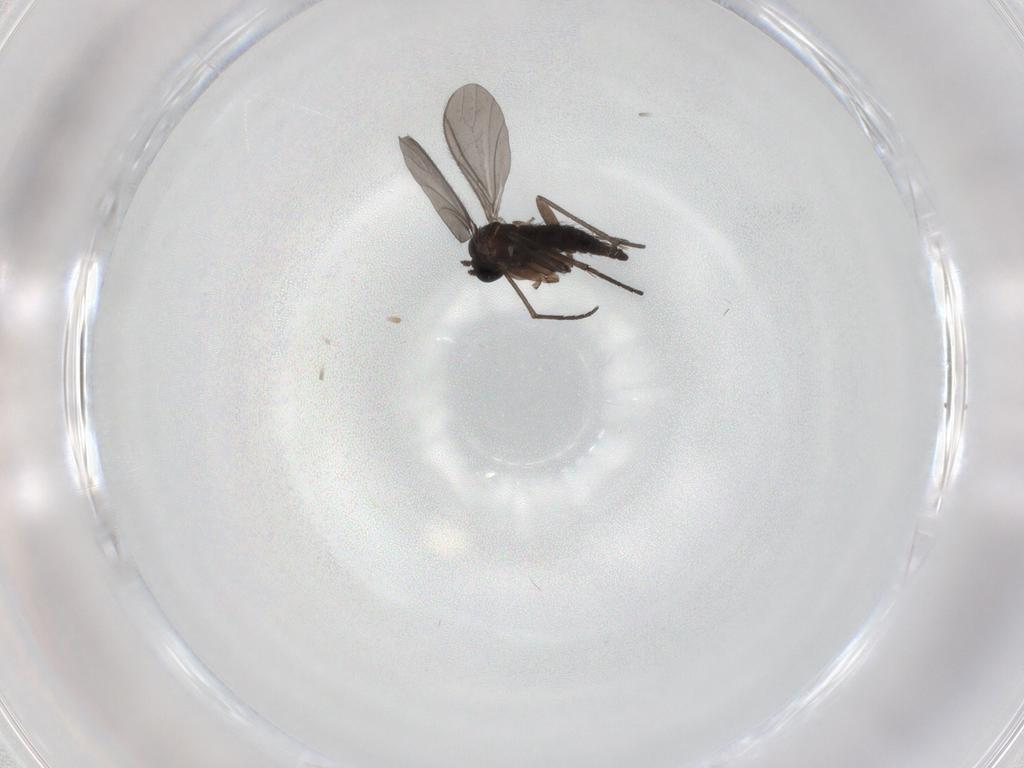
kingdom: Animalia
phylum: Arthropoda
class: Insecta
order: Diptera
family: Sciaridae
